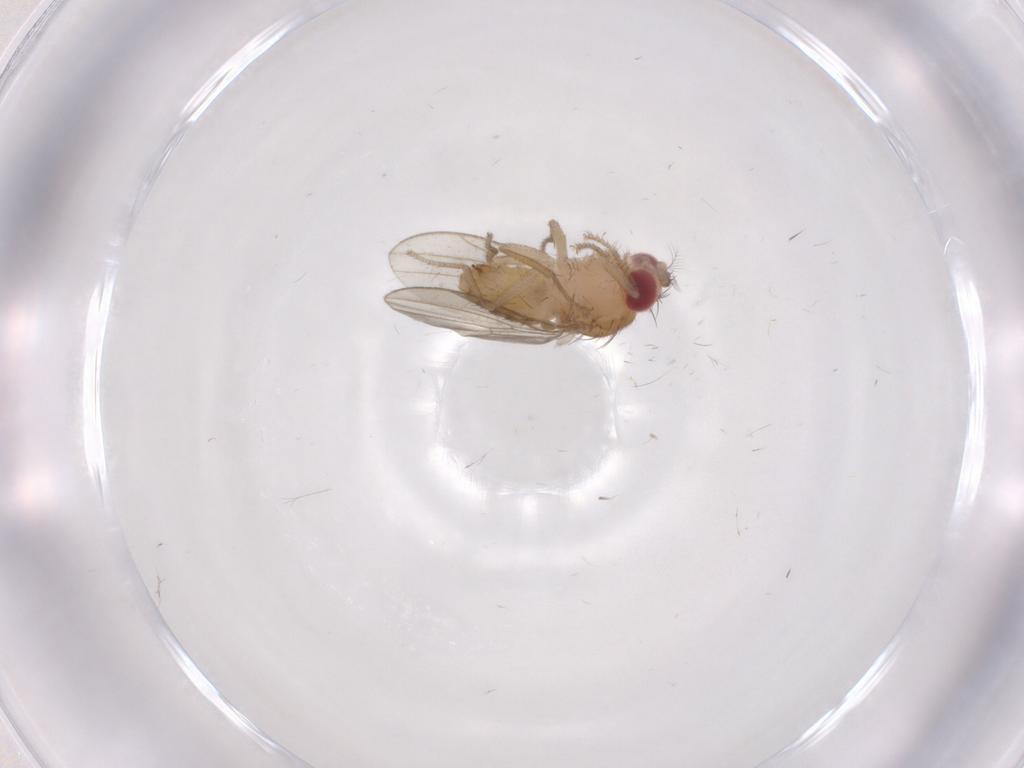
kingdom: Animalia
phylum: Arthropoda
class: Insecta
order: Diptera
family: Drosophilidae
